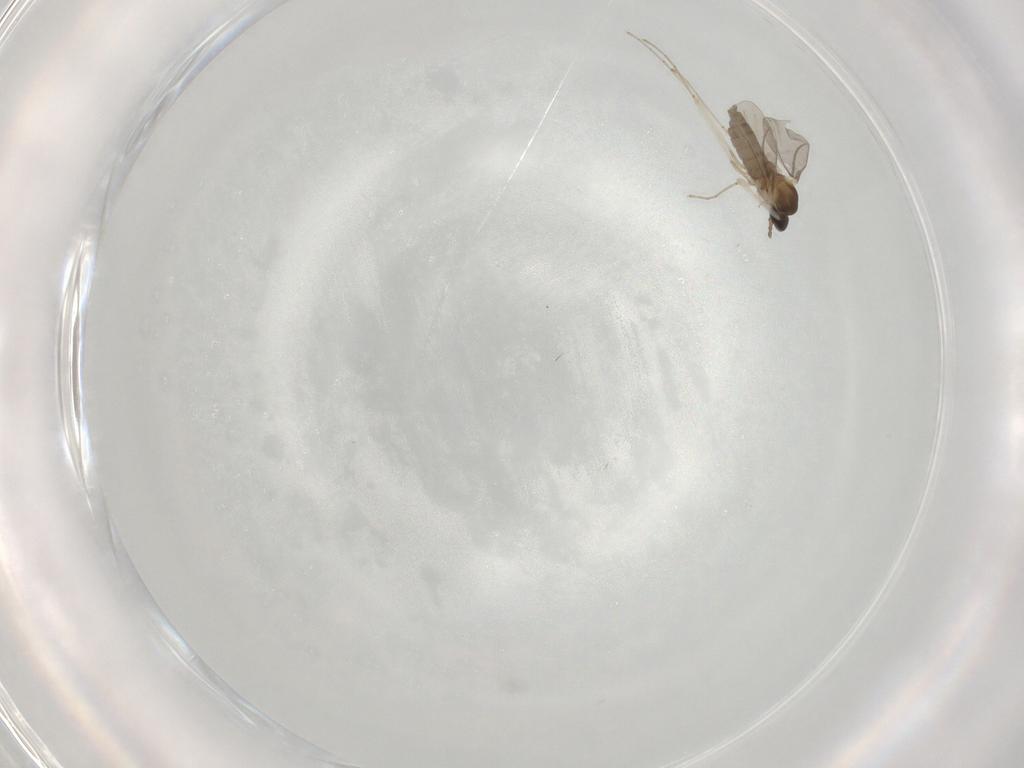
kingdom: Animalia
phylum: Arthropoda
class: Insecta
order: Diptera
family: Cecidomyiidae
